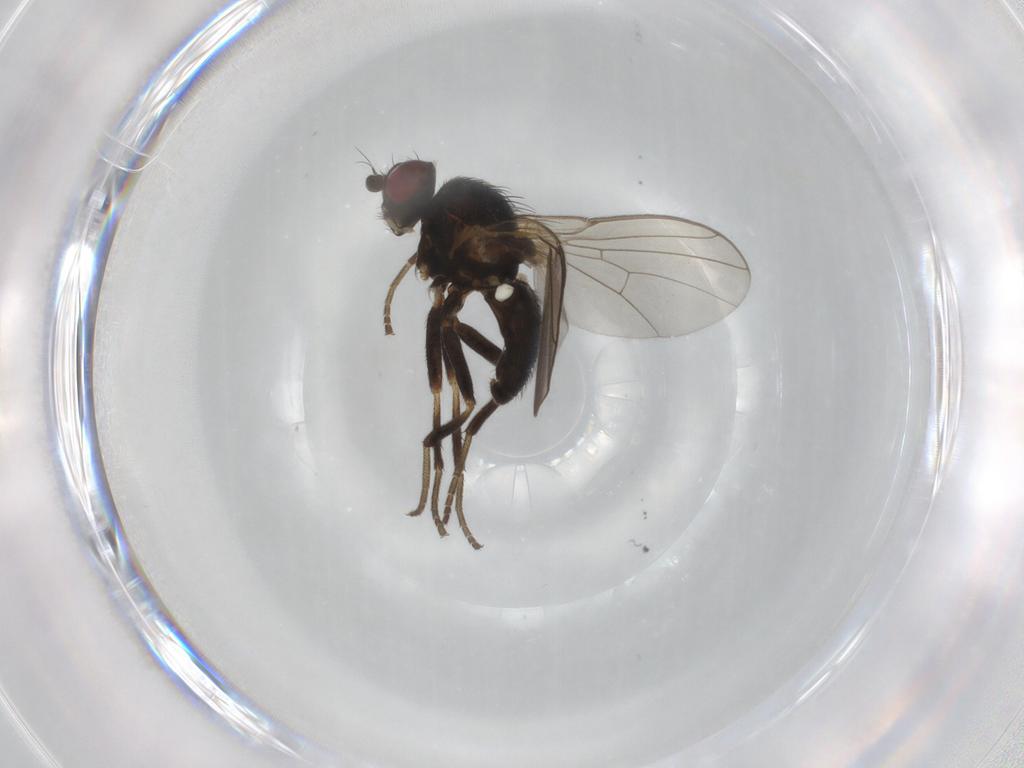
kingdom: Animalia
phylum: Arthropoda
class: Insecta
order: Diptera
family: Agromyzidae
